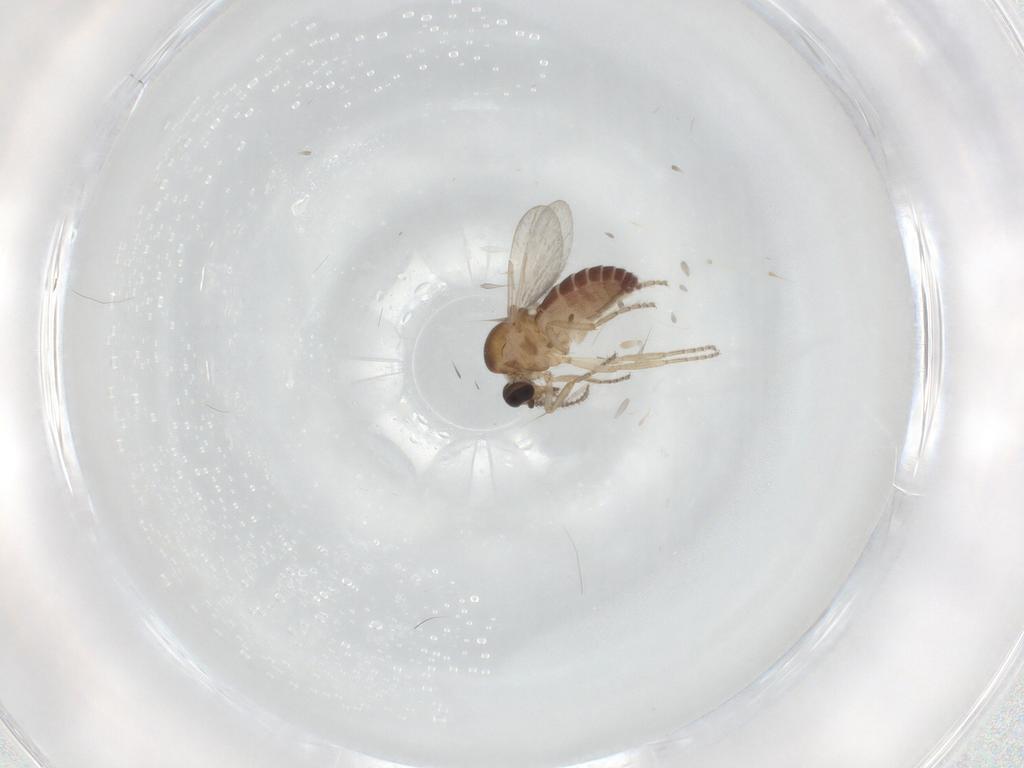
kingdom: Animalia
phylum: Arthropoda
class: Insecta
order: Diptera
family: Ceratopogonidae
